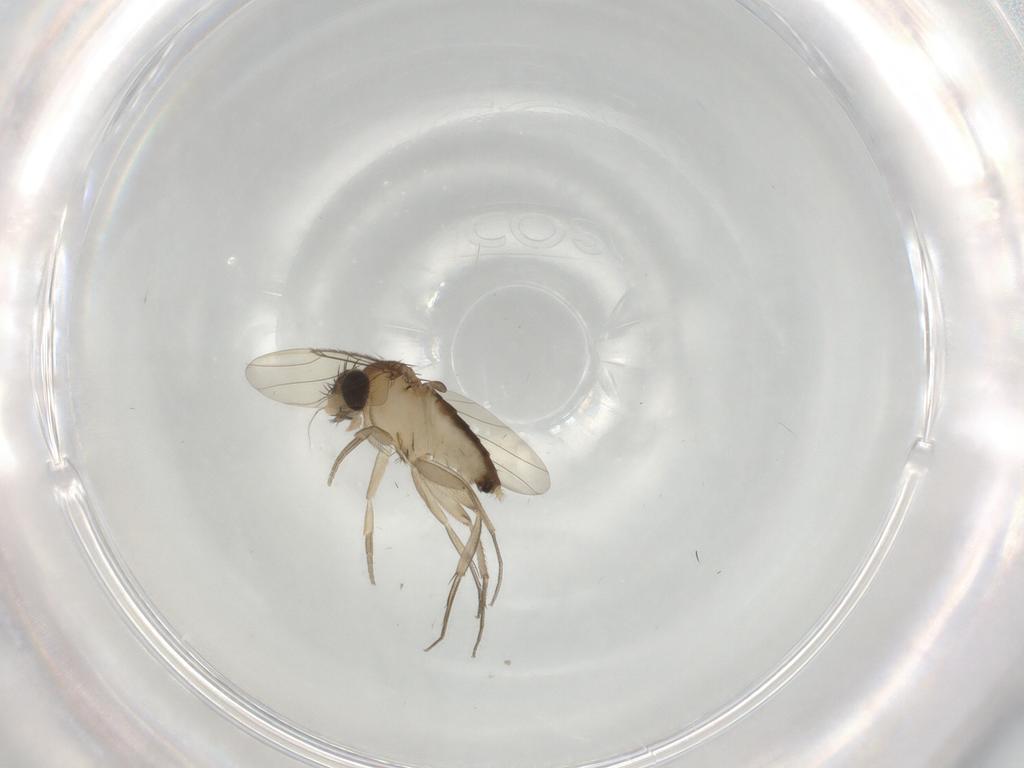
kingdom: Animalia
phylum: Arthropoda
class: Insecta
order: Diptera
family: Phoridae
